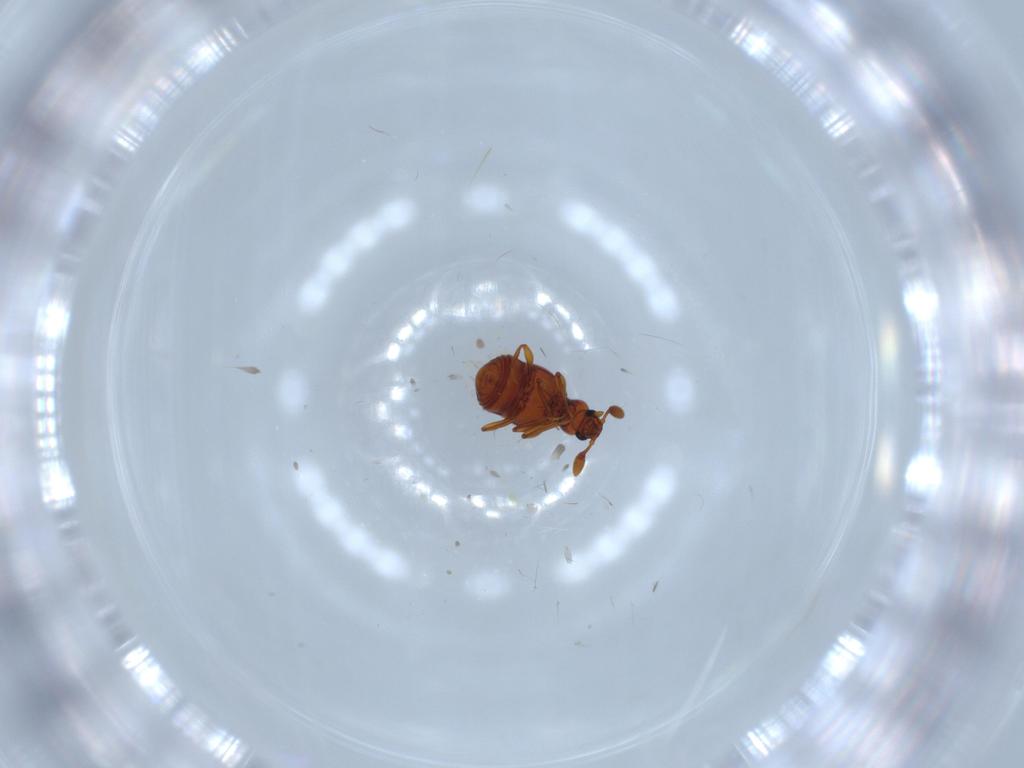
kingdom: Animalia
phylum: Arthropoda
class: Insecta
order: Coleoptera
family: Staphylinidae
